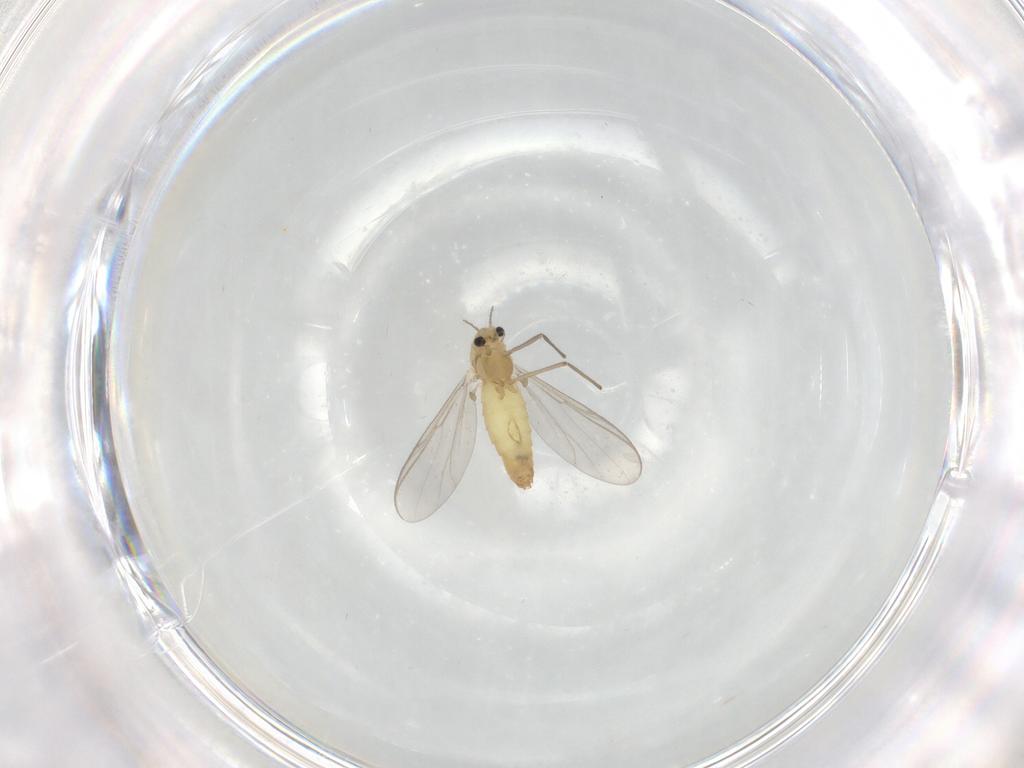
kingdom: Animalia
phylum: Arthropoda
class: Insecta
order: Diptera
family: Chironomidae
